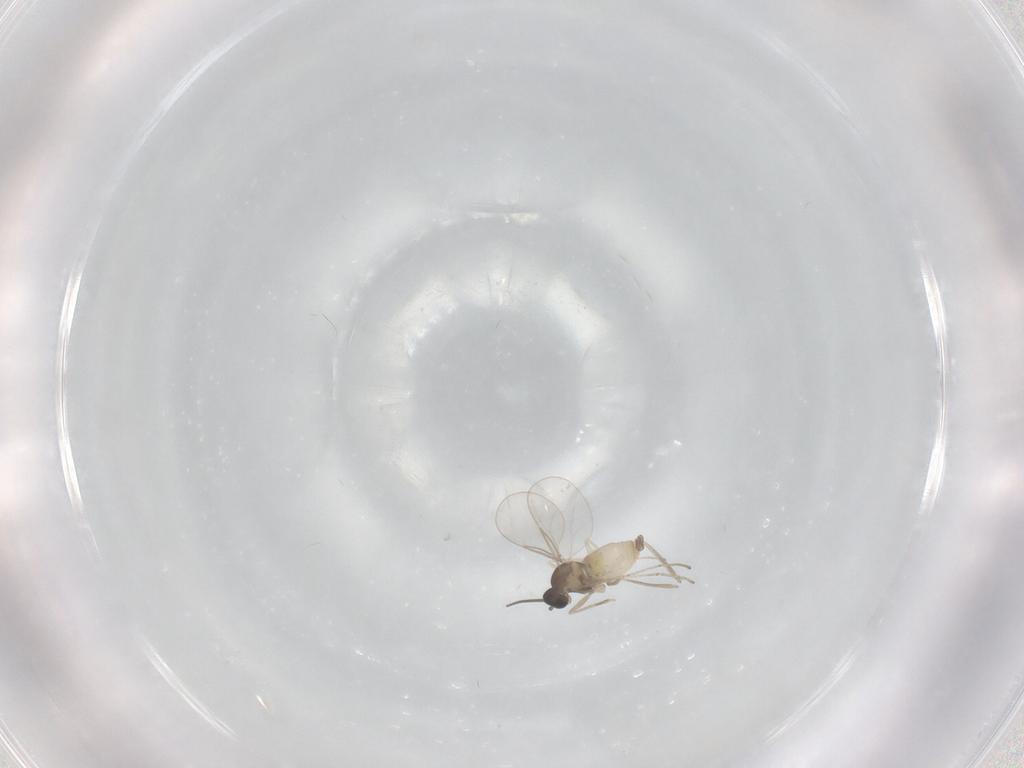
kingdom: Animalia
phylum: Arthropoda
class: Insecta
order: Diptera
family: Cecidomyiidae
